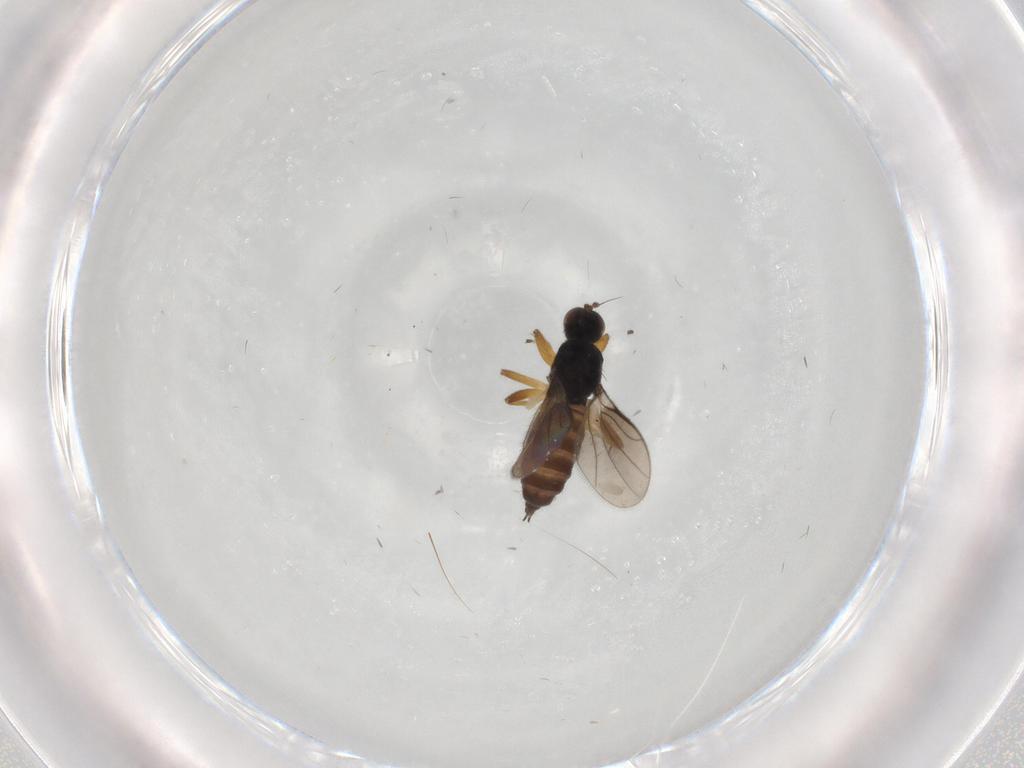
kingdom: Animalia
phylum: Arthropoda
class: Insecta
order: Diptera
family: Hybotidae
